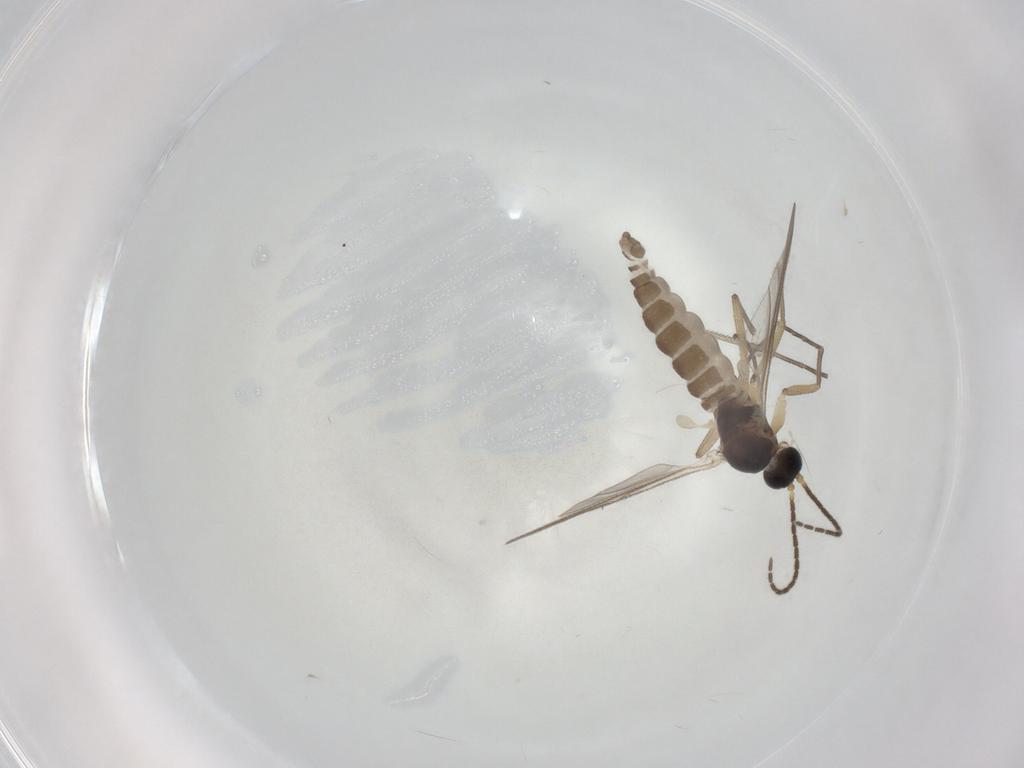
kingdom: Animalia
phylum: Arthropoda
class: Insecta
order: Diptera
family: Sciaridae
